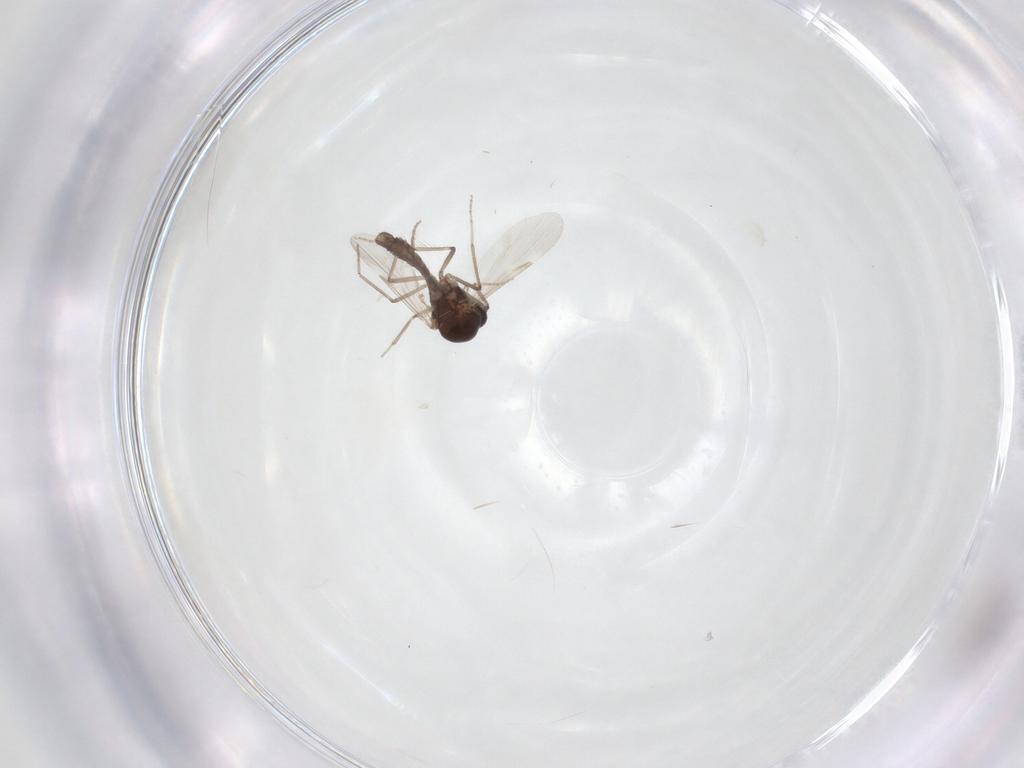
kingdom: Animalia
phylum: Arthropoda
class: Insecta
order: Diptera
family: Ceratopogonidae
